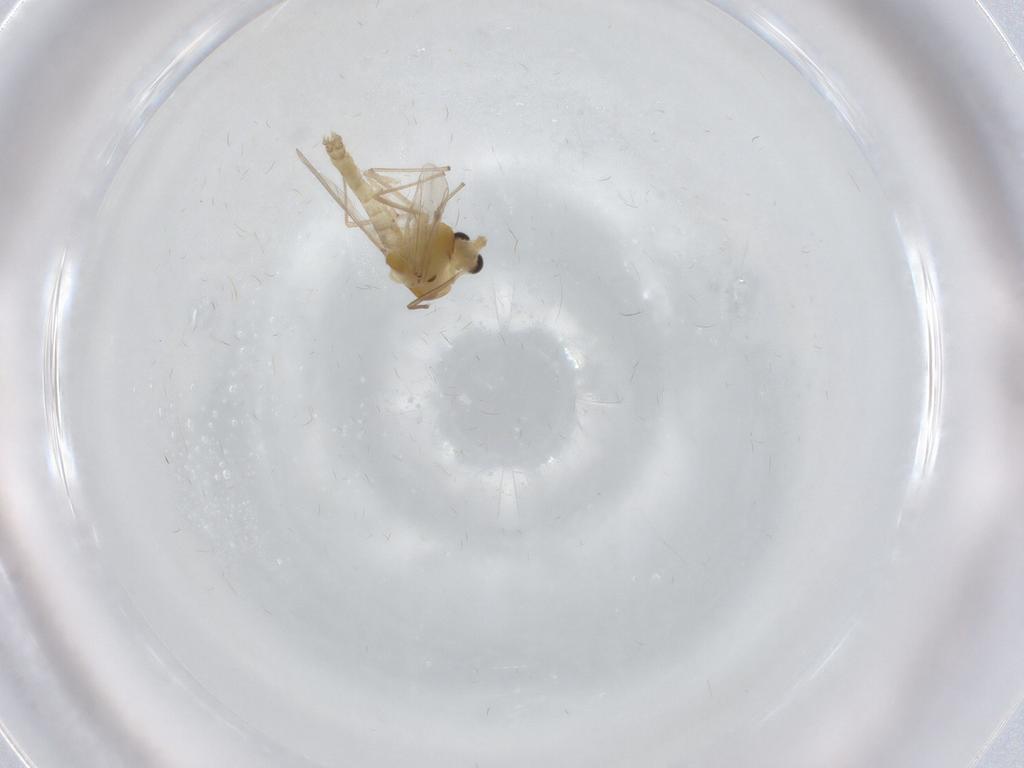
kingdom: Animalia
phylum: Arthropoda
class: Insecta
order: Diptera
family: Chironomidae
